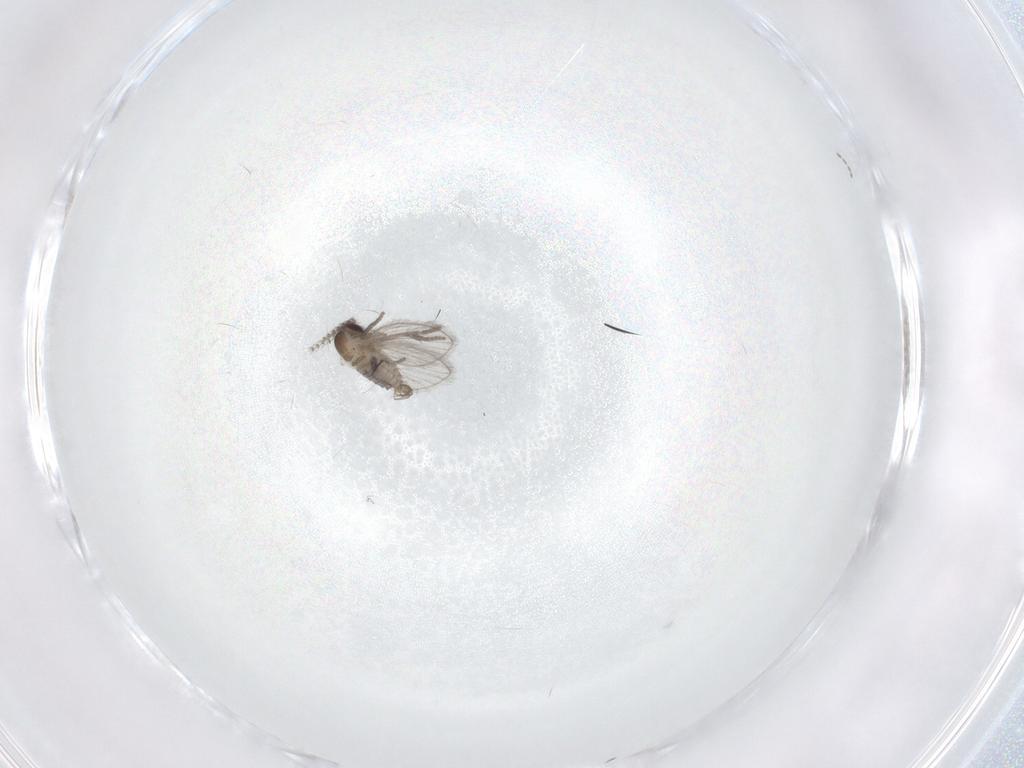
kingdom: Animalia
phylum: Arthropoda
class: Insecta
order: Diptera
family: Psychodidae
